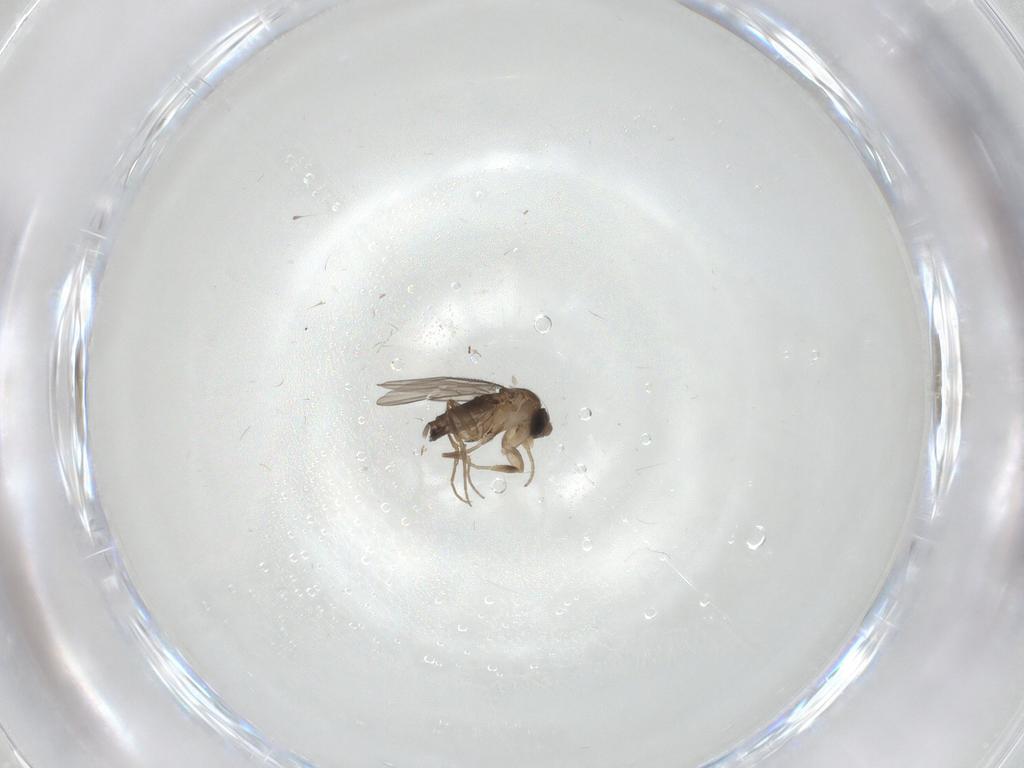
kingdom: Animalia
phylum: Arthropoda
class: Insecta
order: Diptera
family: Phoridae
